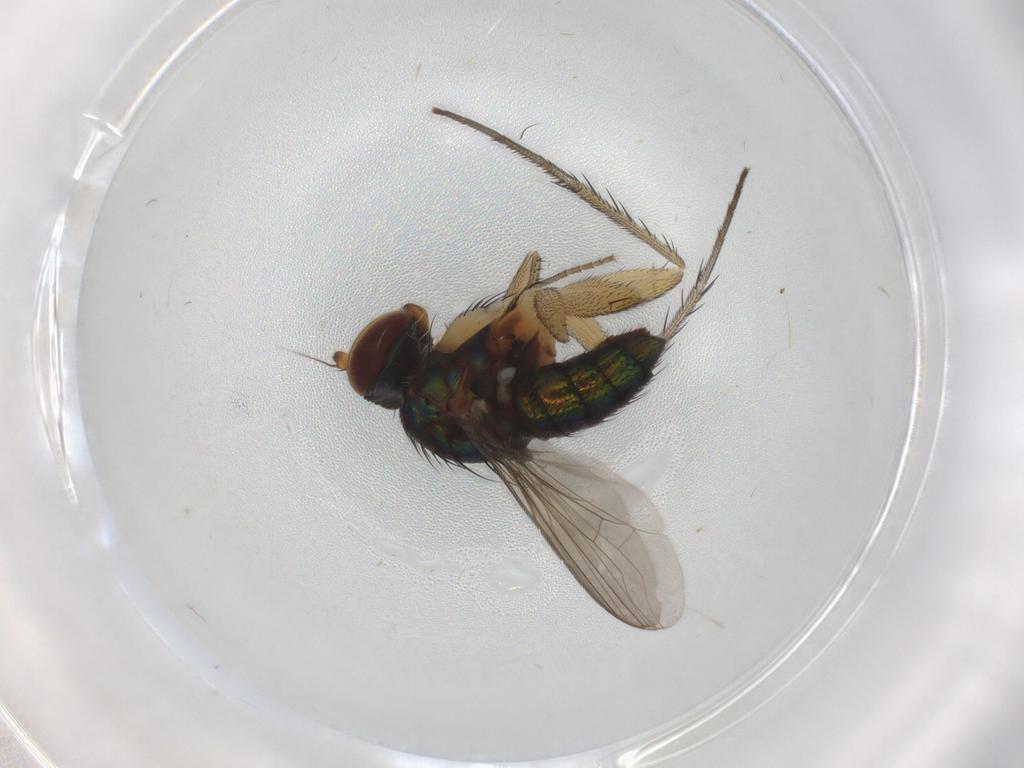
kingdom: Animalia
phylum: Arthropoda
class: Insecta
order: Diptera
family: Dolichopodidae
